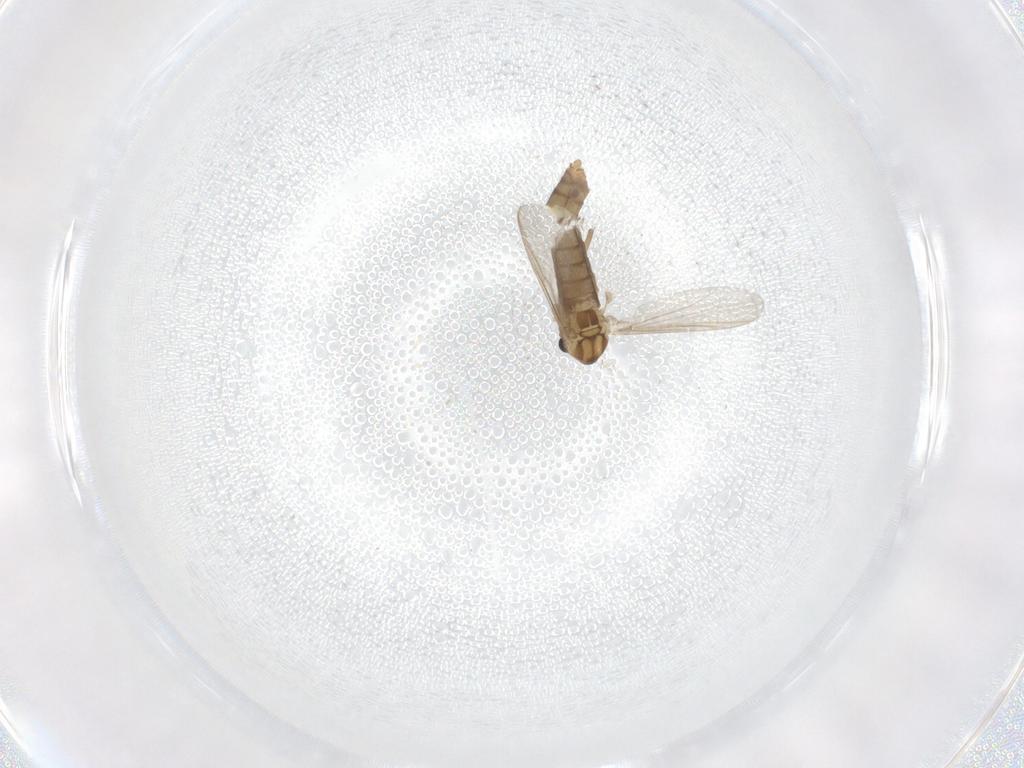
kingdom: Animalia
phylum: Arthropoda
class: Insecta
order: Diptera
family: Chironomidae
